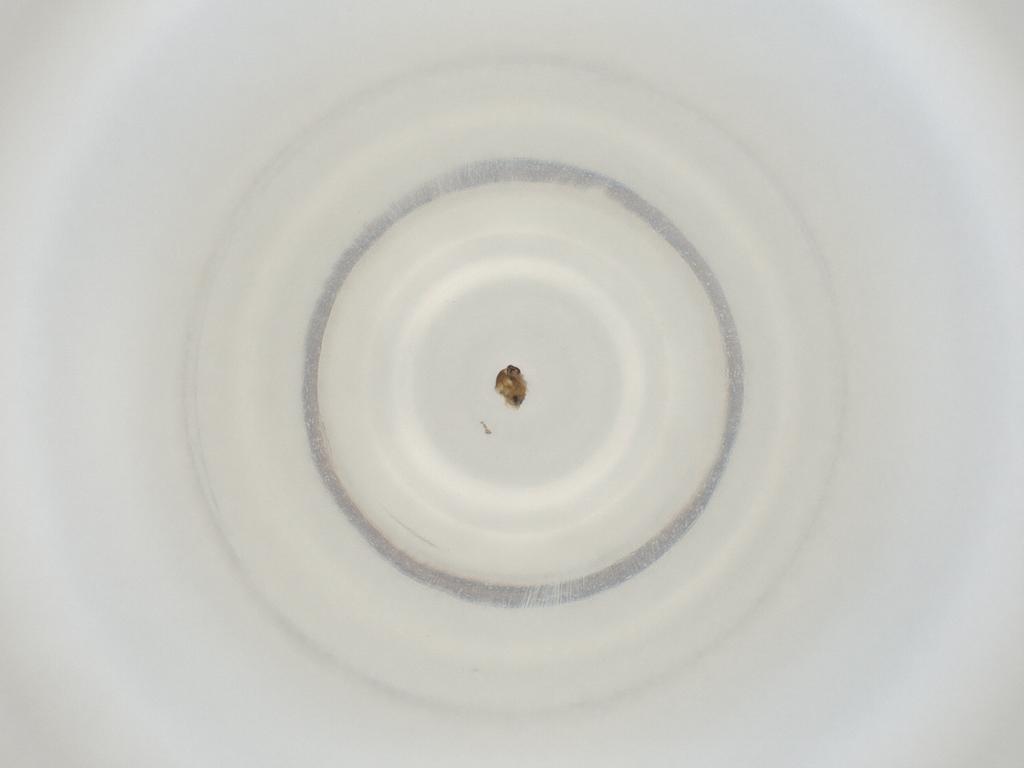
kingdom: Animalia
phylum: Arthropoda
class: Insecta
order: Diptera
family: Cecidomyiidae
